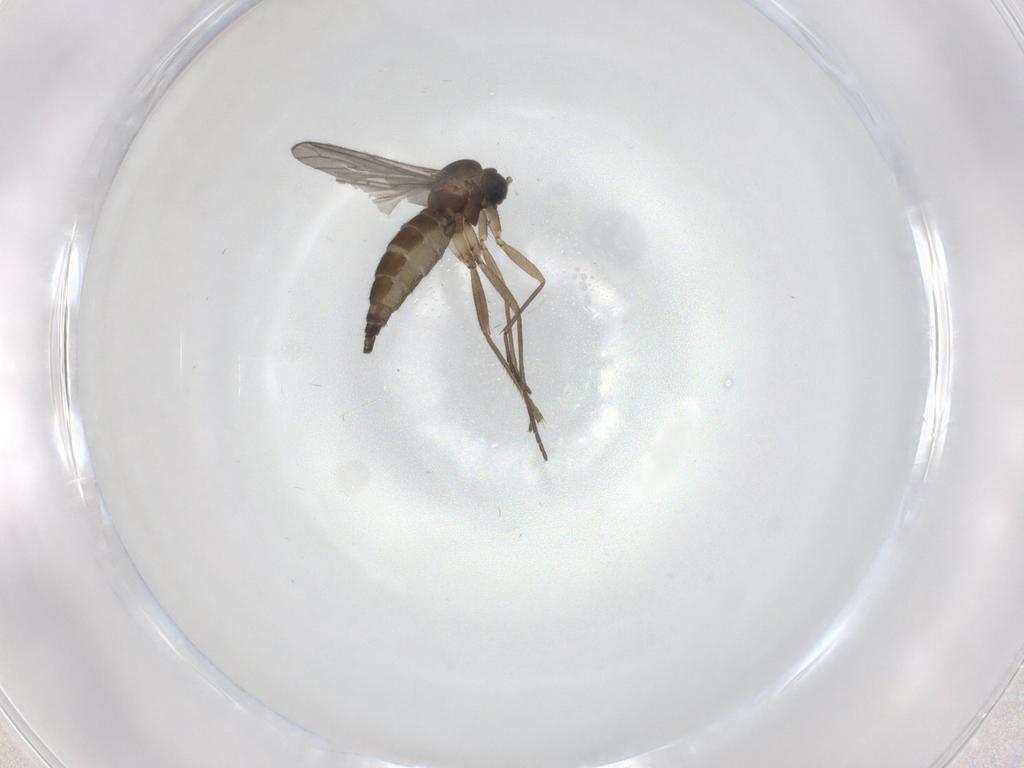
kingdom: Animalia
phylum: Arthropoda
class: Insecta
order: Diptera
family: Sciaridae
